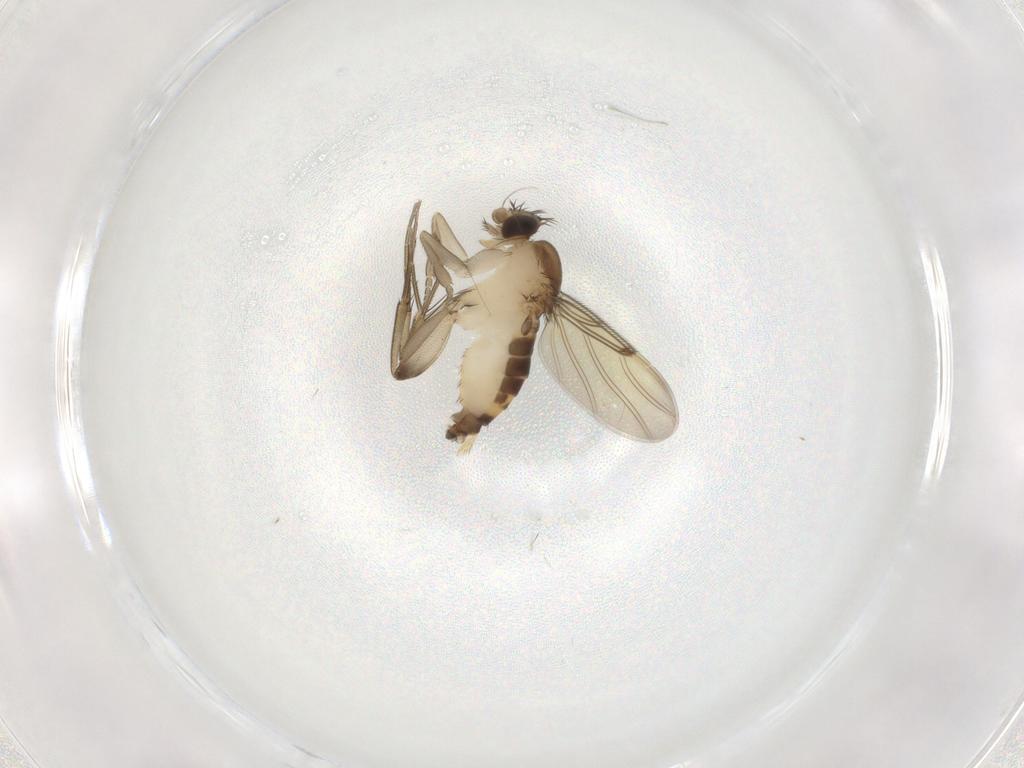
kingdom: Animalia
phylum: Arthropoda
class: Insecta
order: Diptera
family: Phoridae
